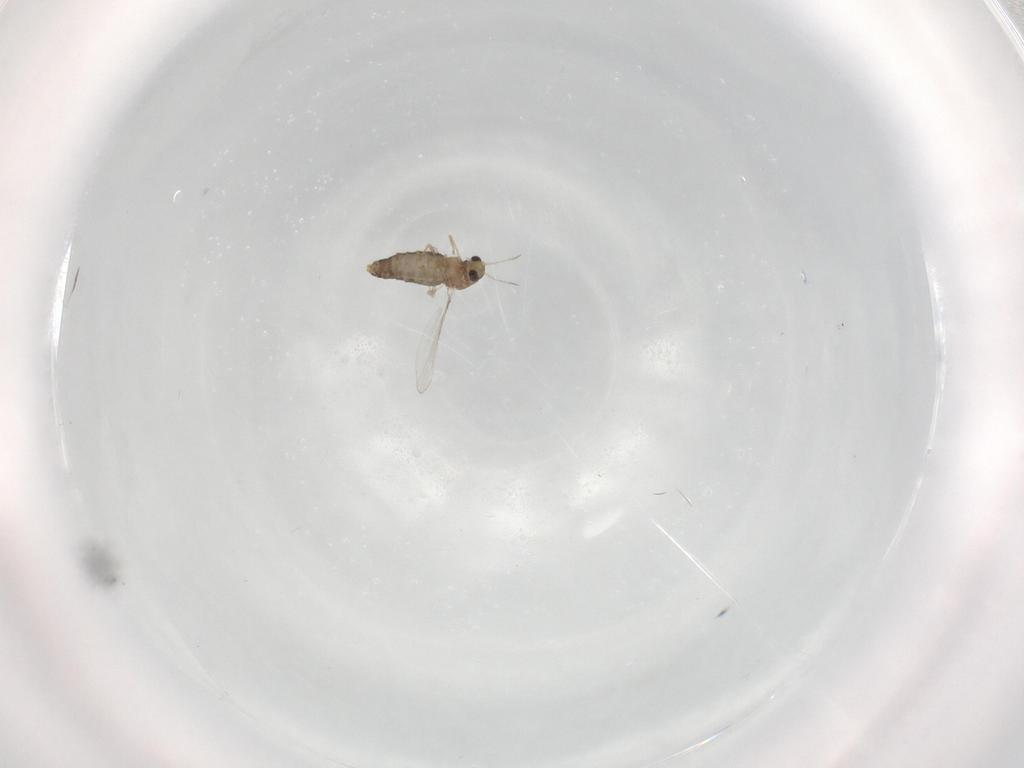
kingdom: Animalia
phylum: Arthropoda
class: Insecta
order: Diptera
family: Chironomidae
